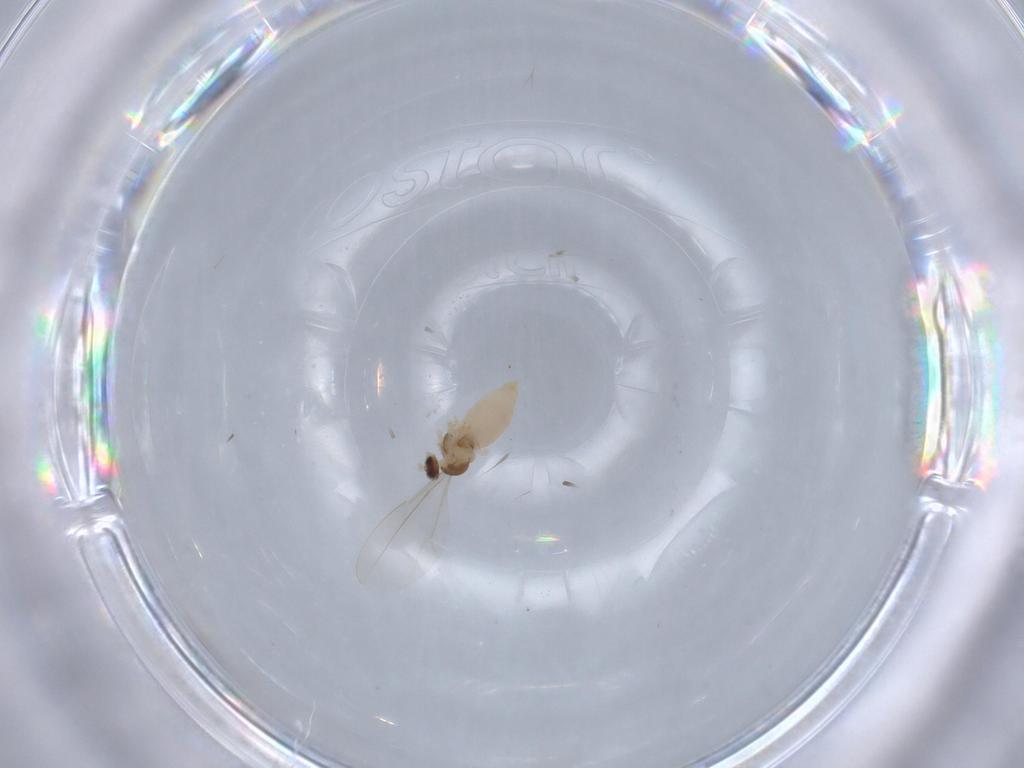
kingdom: Animalia
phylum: Arthropoda
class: Insecta
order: Diptera
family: Cecidomyiidae
